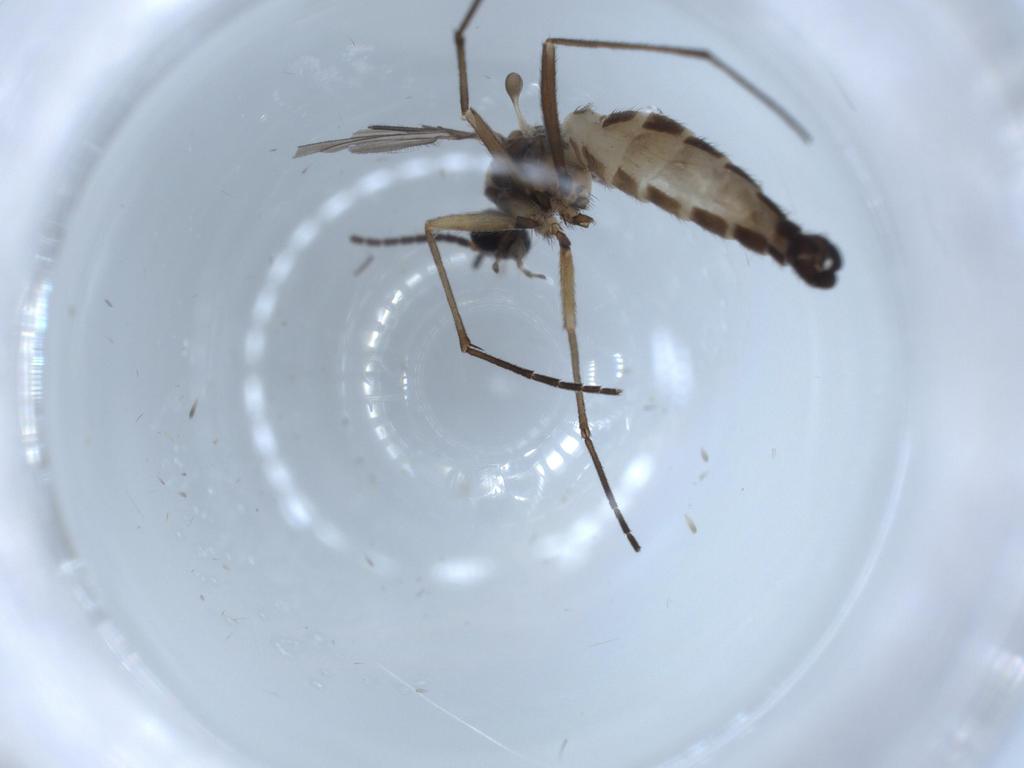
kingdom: Animalia
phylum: Arthropoda
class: Insecta
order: Diptera
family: Sciaridae
